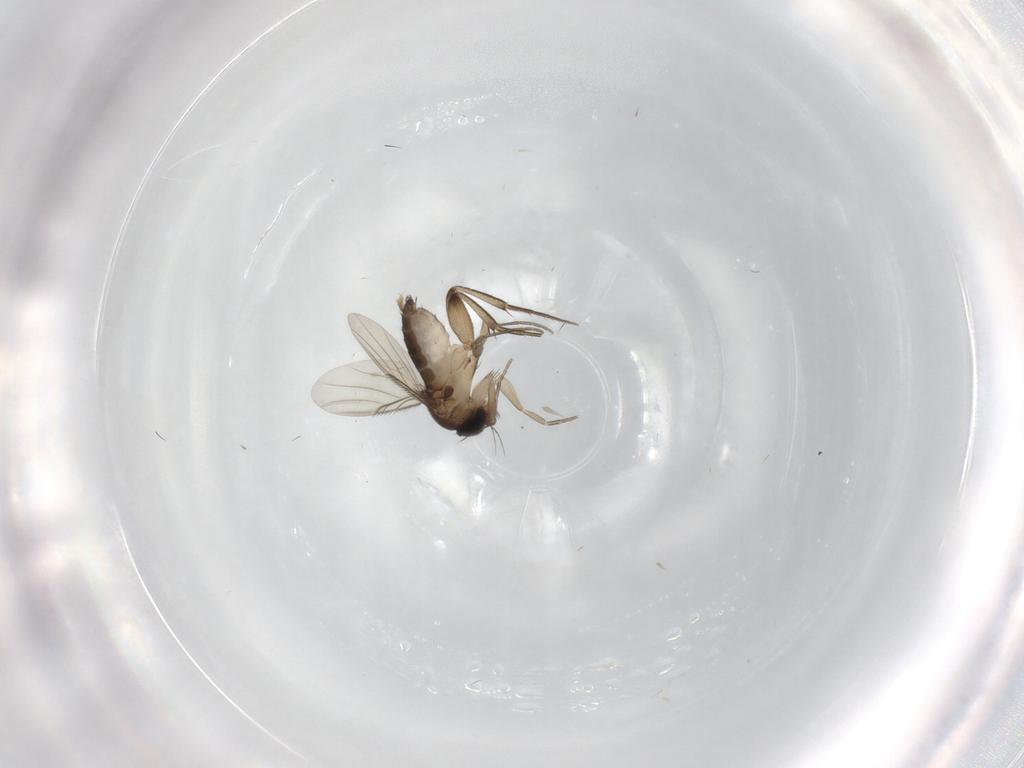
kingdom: Animalia
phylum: Arthropoda
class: Insecta
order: Diptera
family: Phoridae
